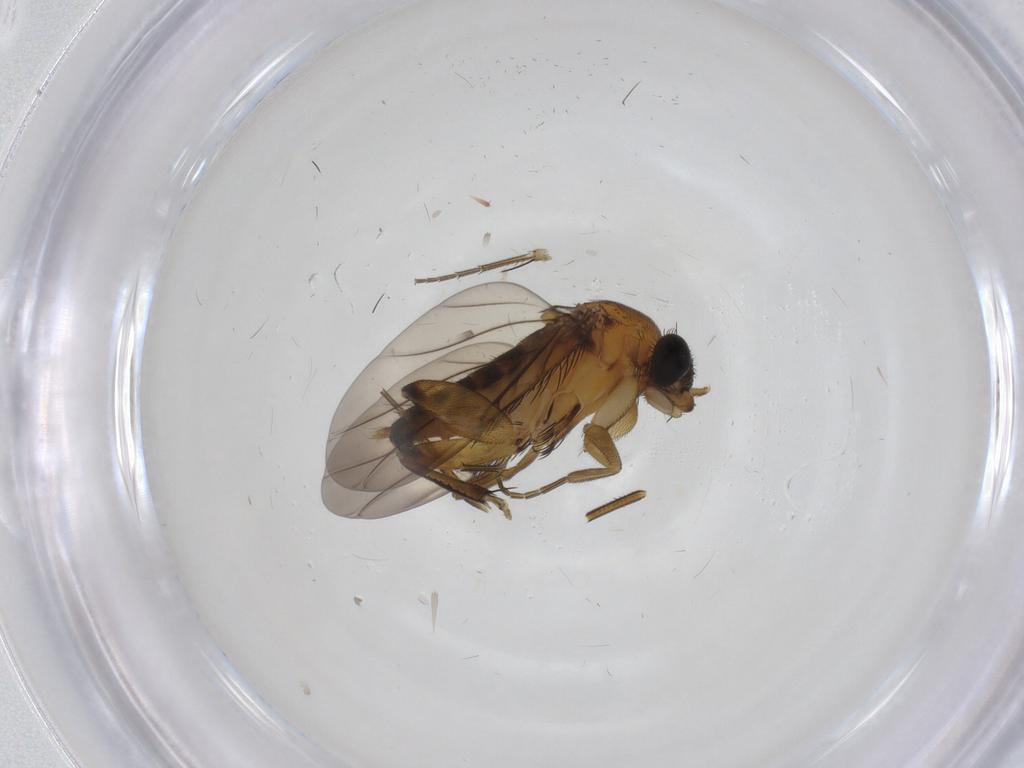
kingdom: Animalia
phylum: Arthropoda
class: Insecta
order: Diptera
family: Phoridae
